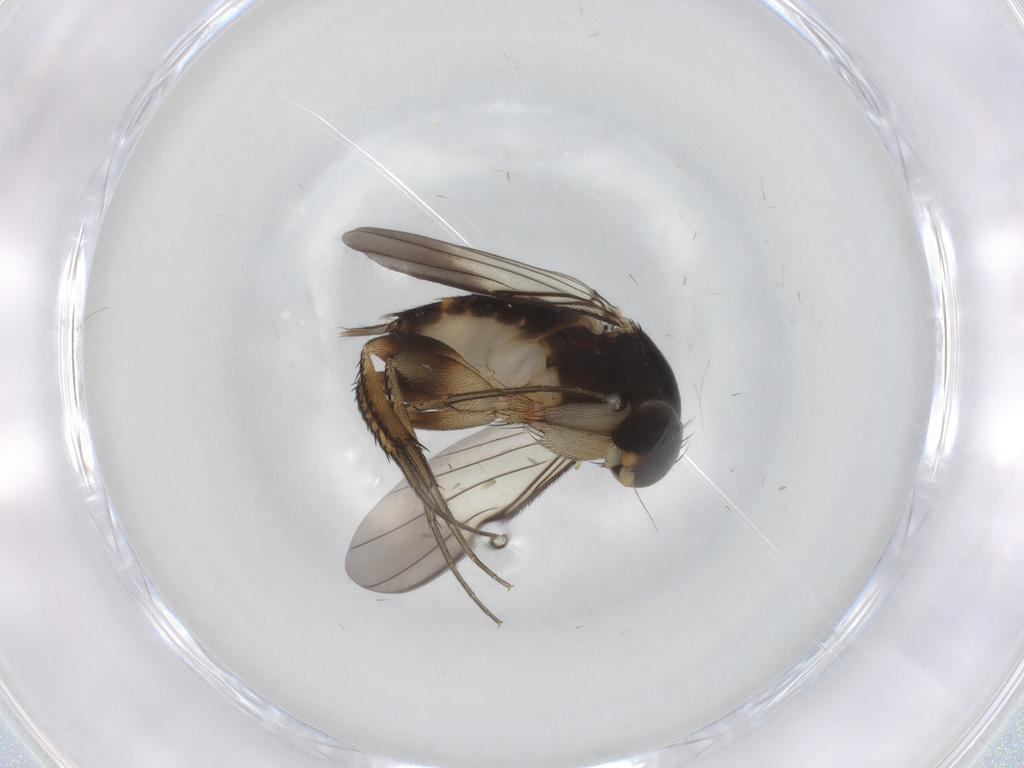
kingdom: Animalia
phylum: Arthropoda
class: Insecta
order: Diptera
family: Phoridae
